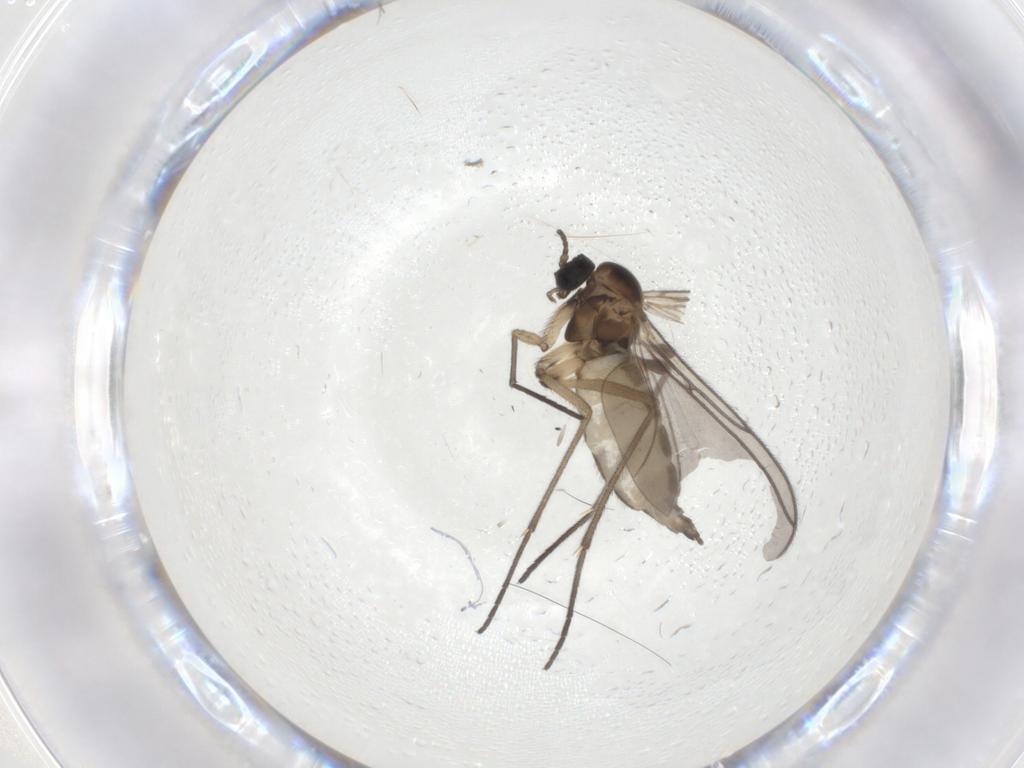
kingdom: Animalia
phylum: Arthropoda
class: Insecta
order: Diptera
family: Sciaridae
